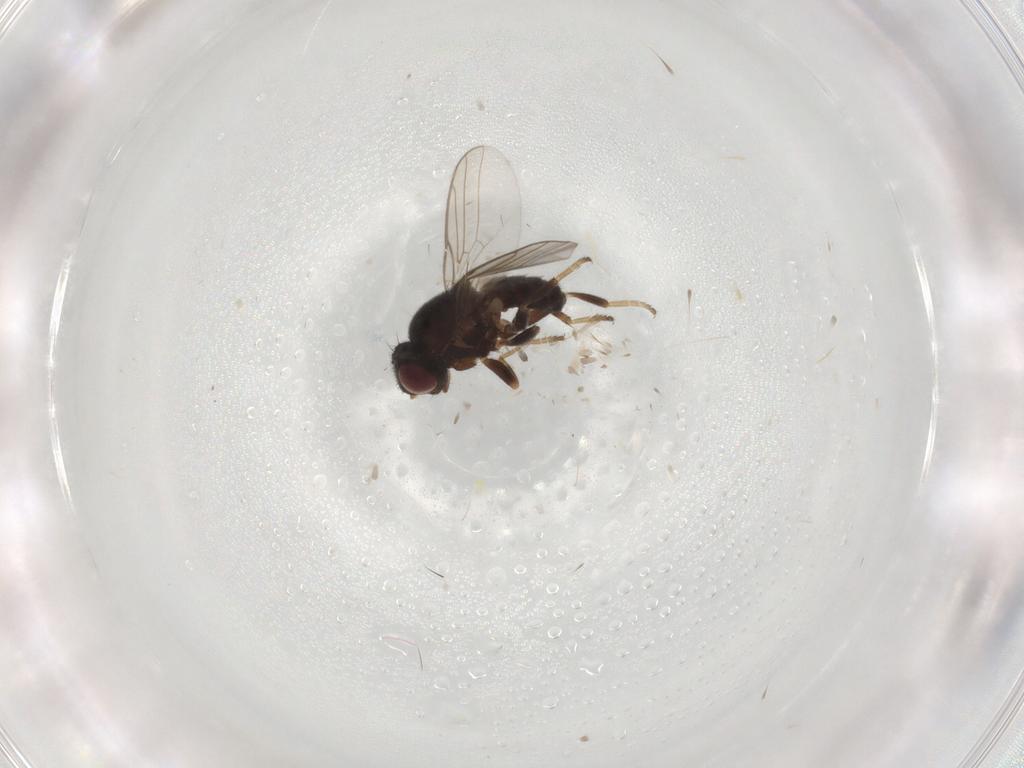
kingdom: Animalia
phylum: Arthropoda
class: Insecta
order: Diptera
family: Chloropidae
